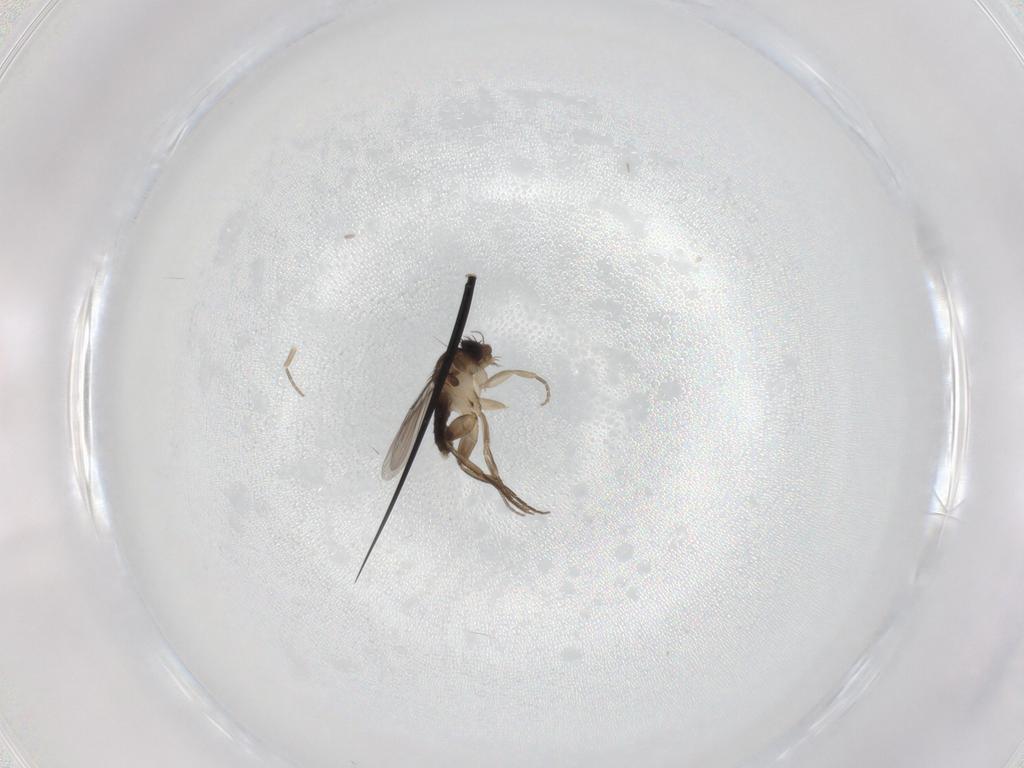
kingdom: Animalia
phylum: Arthropoda
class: Insecta
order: Diptera
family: Phoridae
